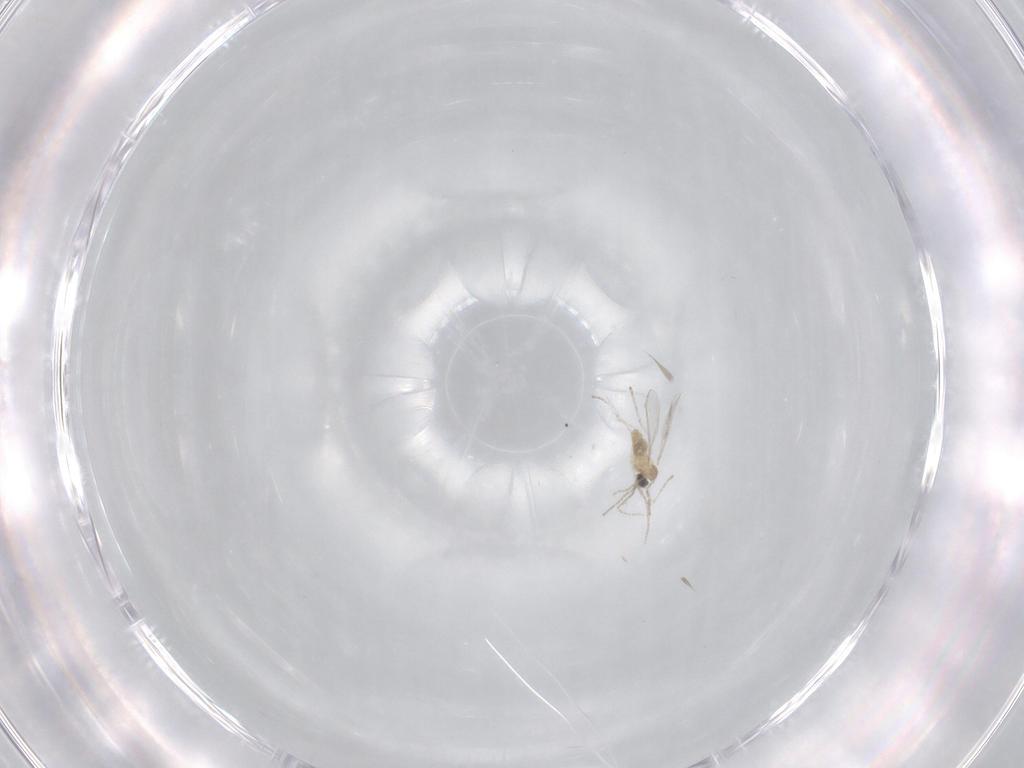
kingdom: Animalia
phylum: Arthropoda
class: Insecta
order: Diptera
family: Cecidomyiidae
